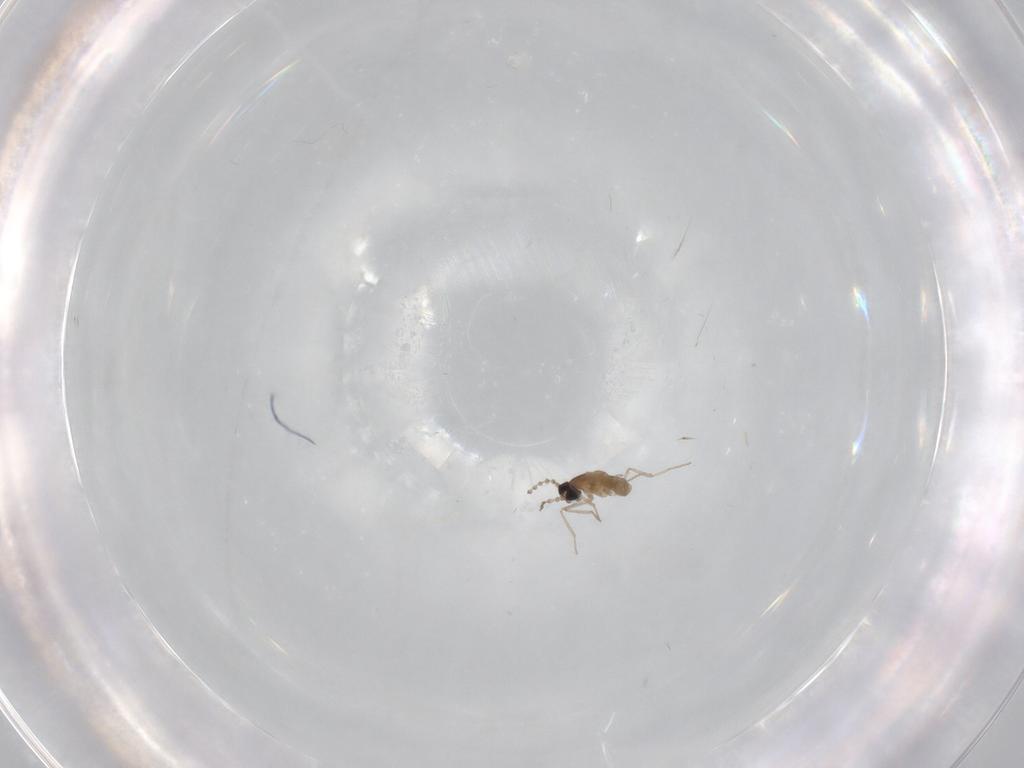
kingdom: Animalia
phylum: Arthropoda
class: Insecta
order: Diptera
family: Cecidomyiidae
